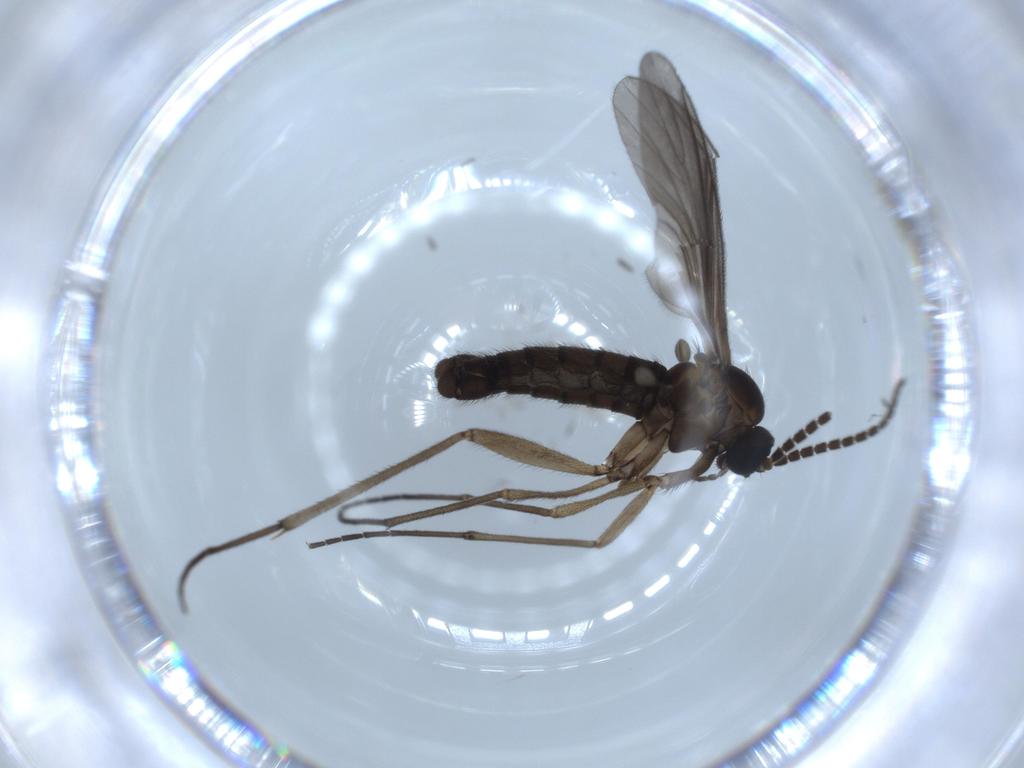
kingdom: Animalia
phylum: Arthropoda
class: Insecta
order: Diptera
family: Sciaridae
